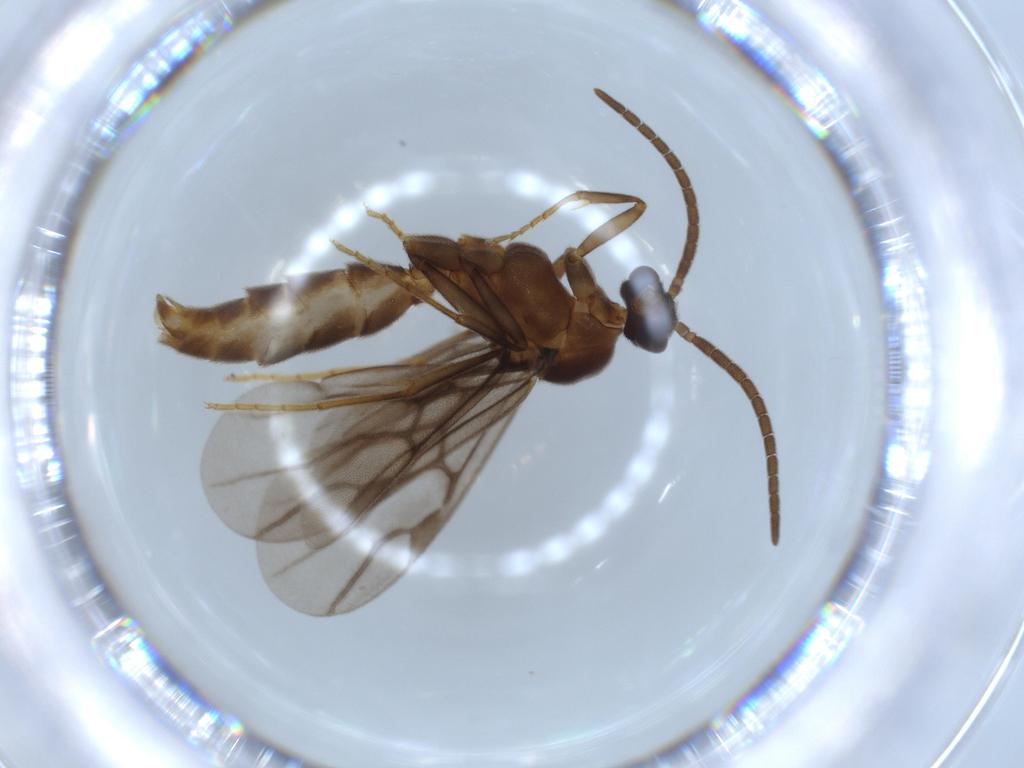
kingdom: Animalia
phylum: Arthropoda
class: Insecta
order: Hymenoptera
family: Formicidae
